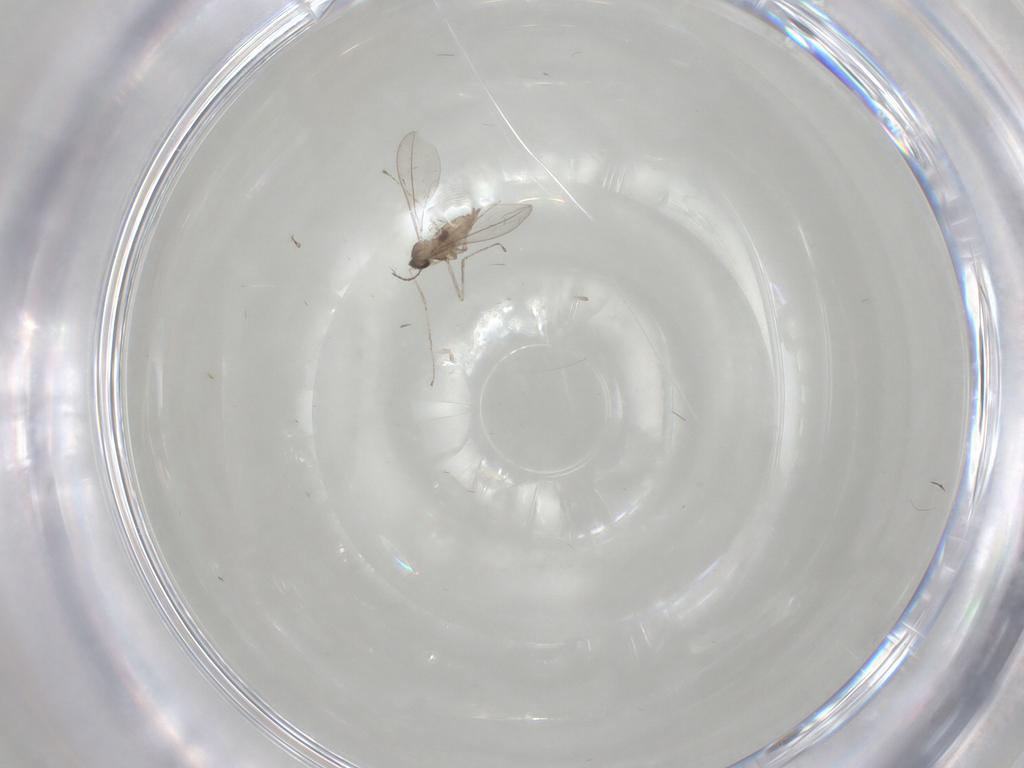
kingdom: Animalia
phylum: Arthropoda
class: Insecta
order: Diptera
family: Cecidomyiidae
